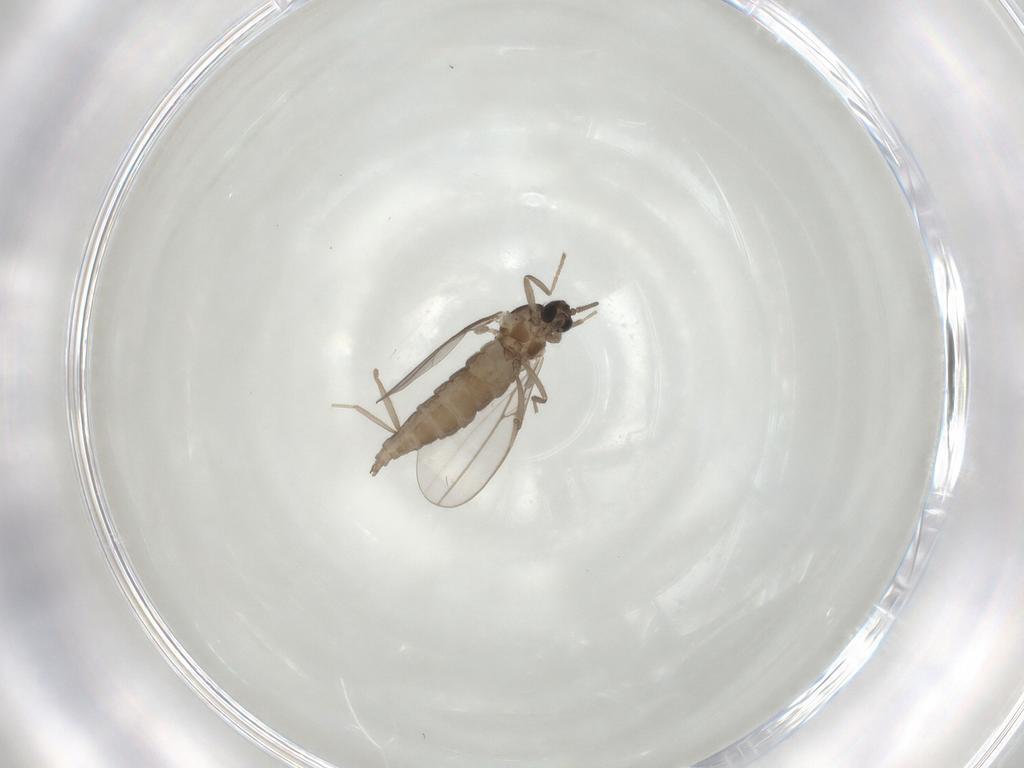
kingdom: Animalia
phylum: Arthropoda
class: Insecta
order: Diptera
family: Cecidomyiidae
